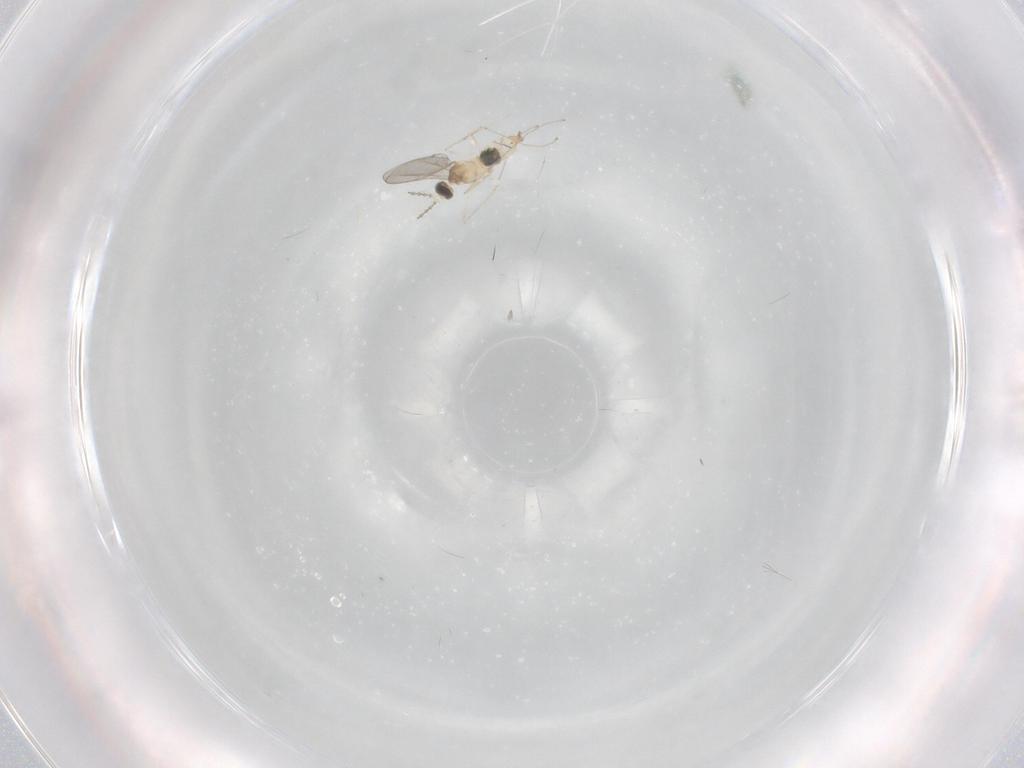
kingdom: Animalia
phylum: Arthropoda
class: Insecta
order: Diptera
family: Cecidomyiidae
